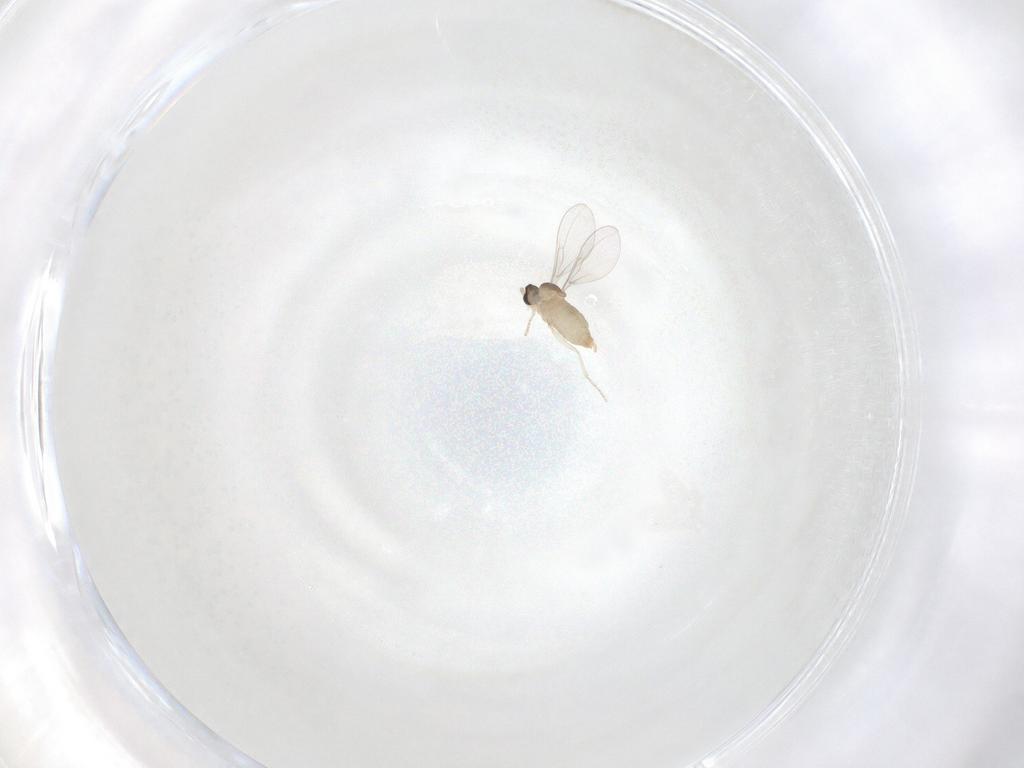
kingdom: Animalia
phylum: Arthropoda
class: Insecta
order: Diptera
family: Cecidomyiidae
